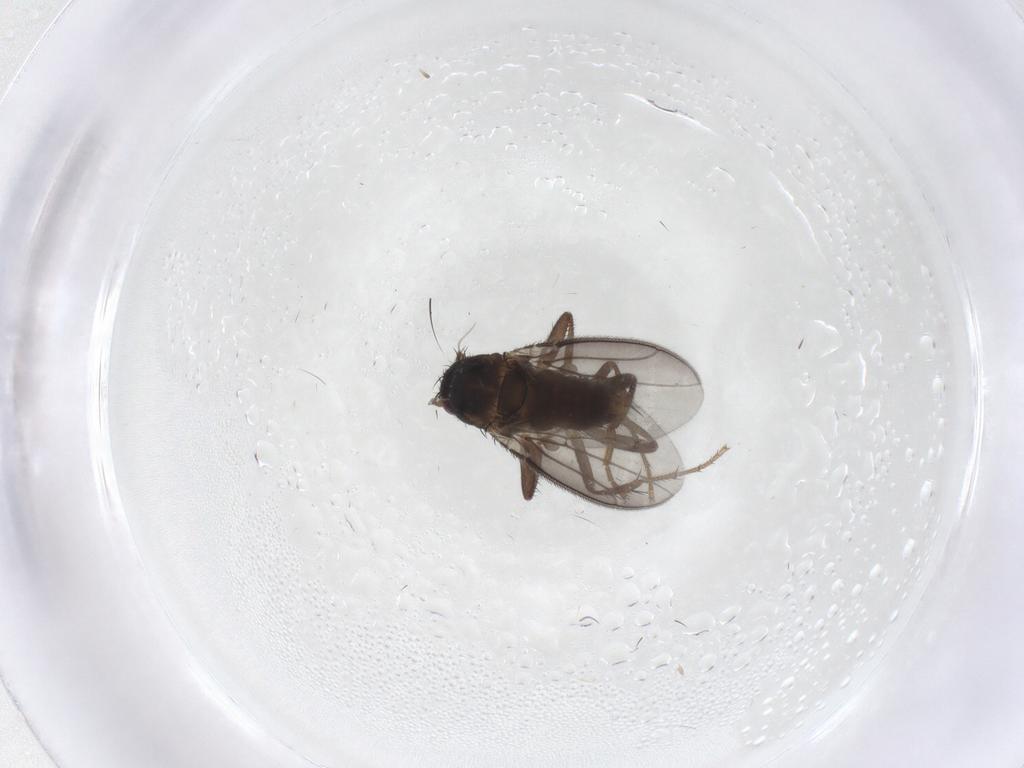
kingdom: Animalia
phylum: Arthropoda
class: Insecta
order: Diptera
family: Sphaeroceridae
